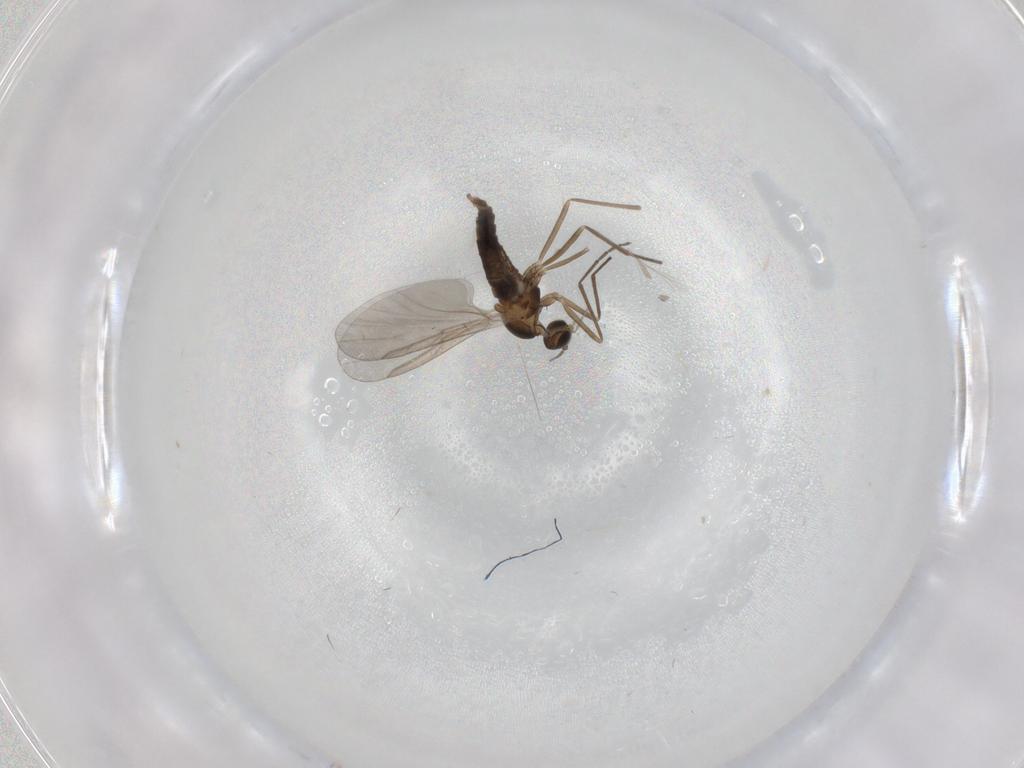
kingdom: Animalia
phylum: Arthropoda
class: Insecta
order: Diptera
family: Cecidomyiidae
